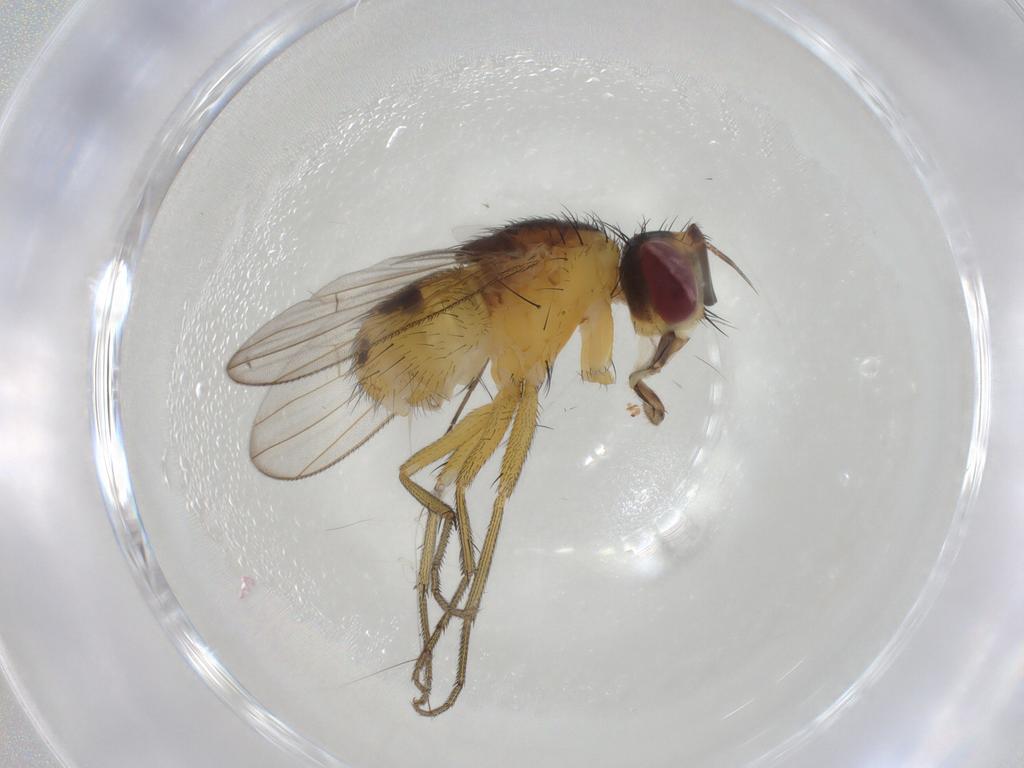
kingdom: Animalia
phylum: Arthropoda
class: Insecta
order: Diptera
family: Muscidae
